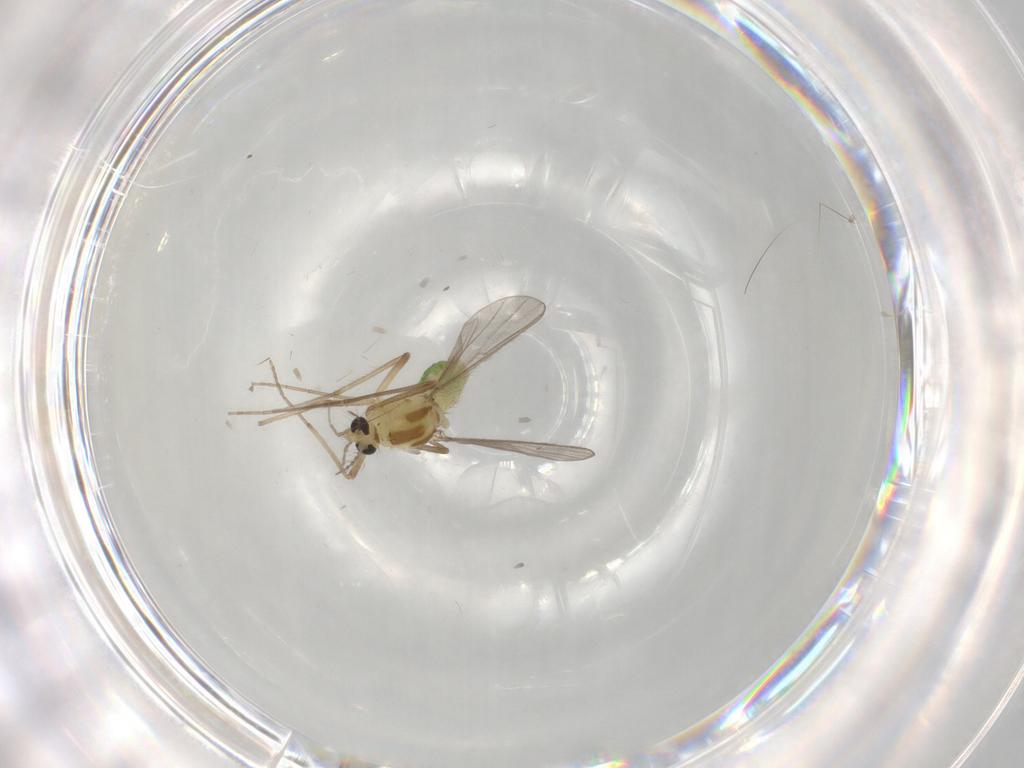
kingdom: Animalia
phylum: Arthropoda
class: Insecta
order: Diptera
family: Chironomidae
